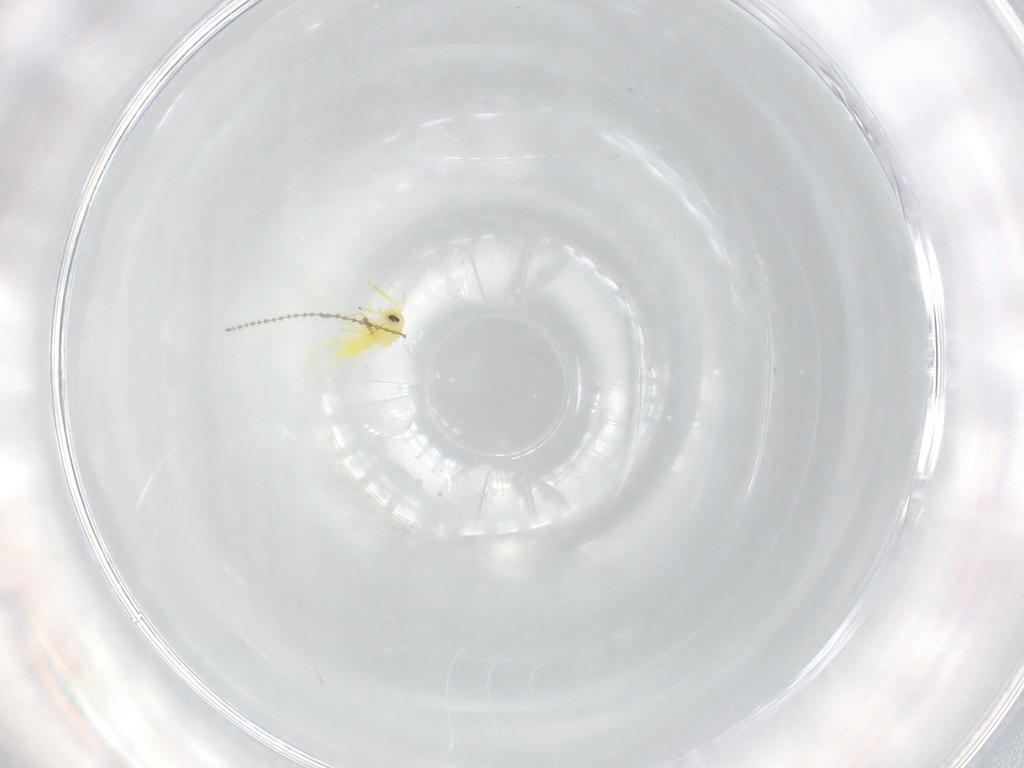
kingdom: Animalia
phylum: Arthropoda
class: Insecta
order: Hemiptera
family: Aleyrodidae
